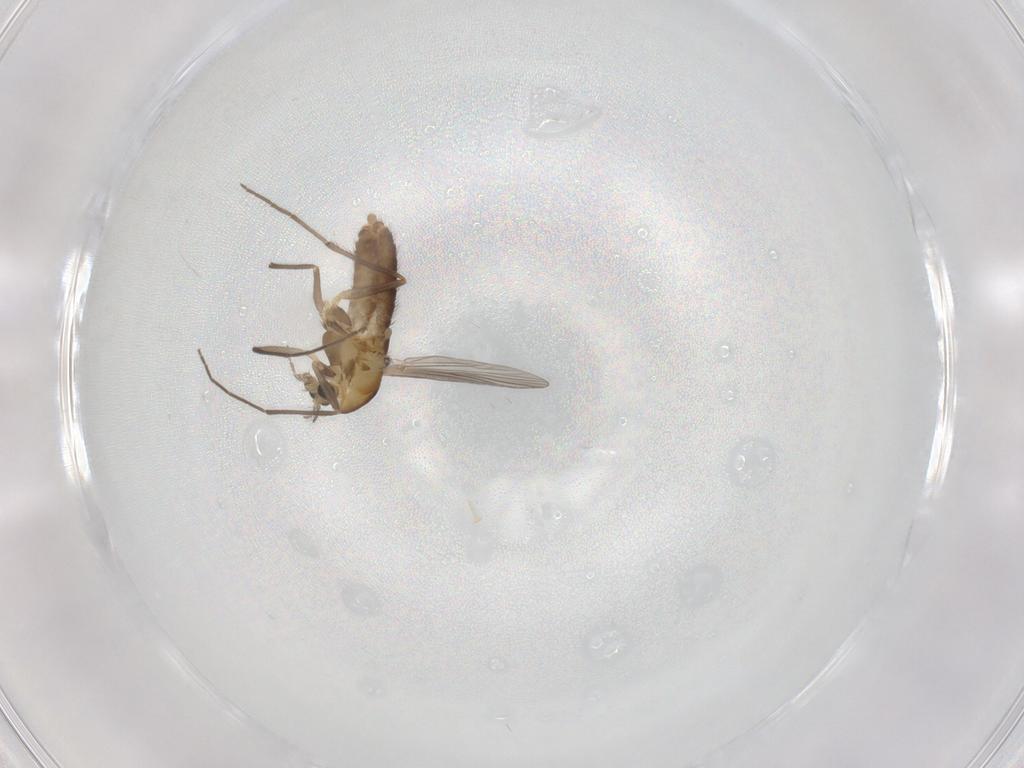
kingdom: Animalia
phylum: Arthropoda
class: Insecta
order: Diptera
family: Chironomidae
